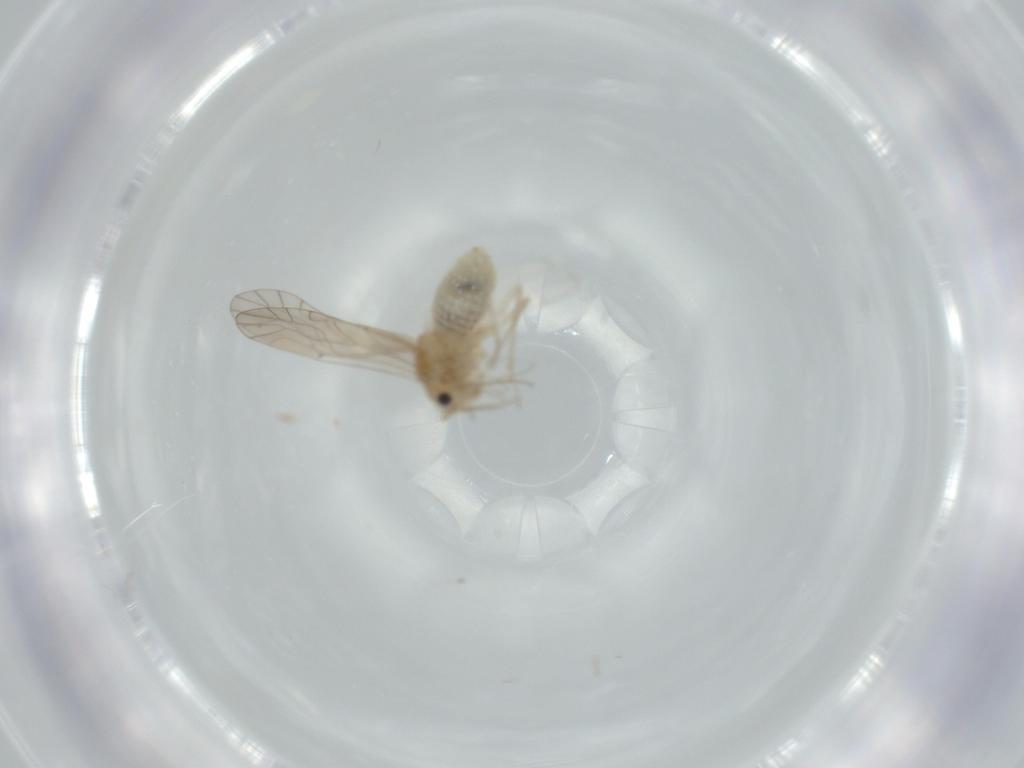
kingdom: Animalia
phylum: Arthropoda
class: Insecta
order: Psocodea
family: Lachesillidae
